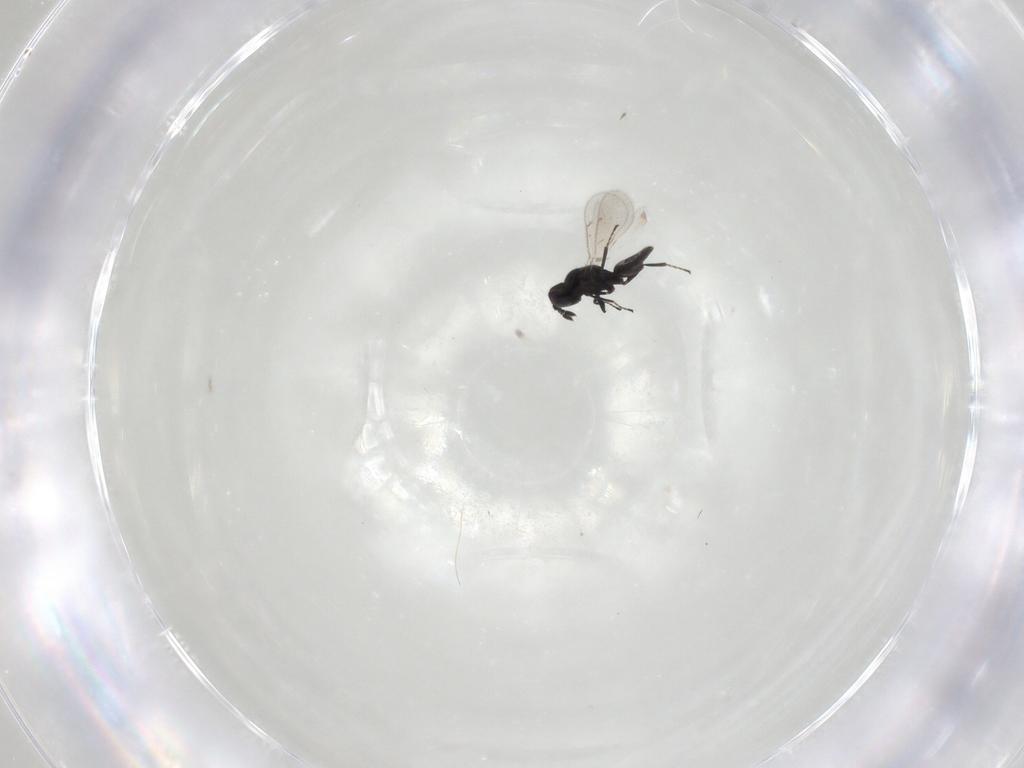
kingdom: Animalia
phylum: Arthropoda
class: Insecta
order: Hymenoptera
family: Eulophidae
